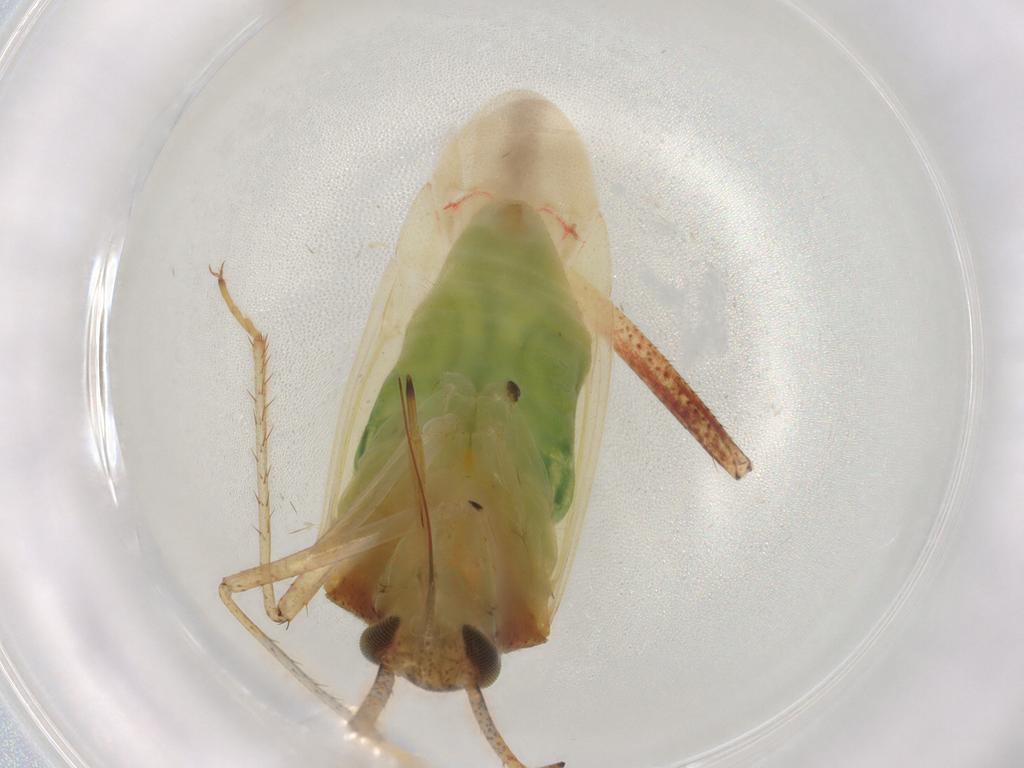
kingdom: Animalia
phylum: Arthropoda
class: Insecta
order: Hemiptera
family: Miridae
